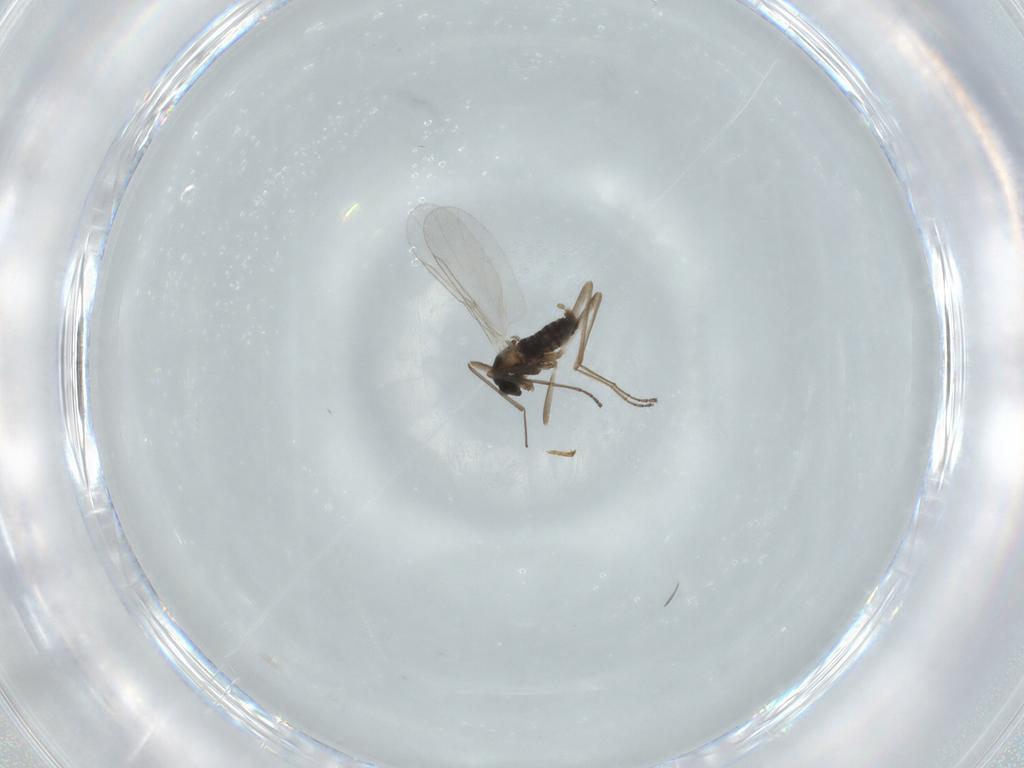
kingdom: Animalia
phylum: Arthropoda
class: Insecta
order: Diptera
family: Cecidomyiidae
